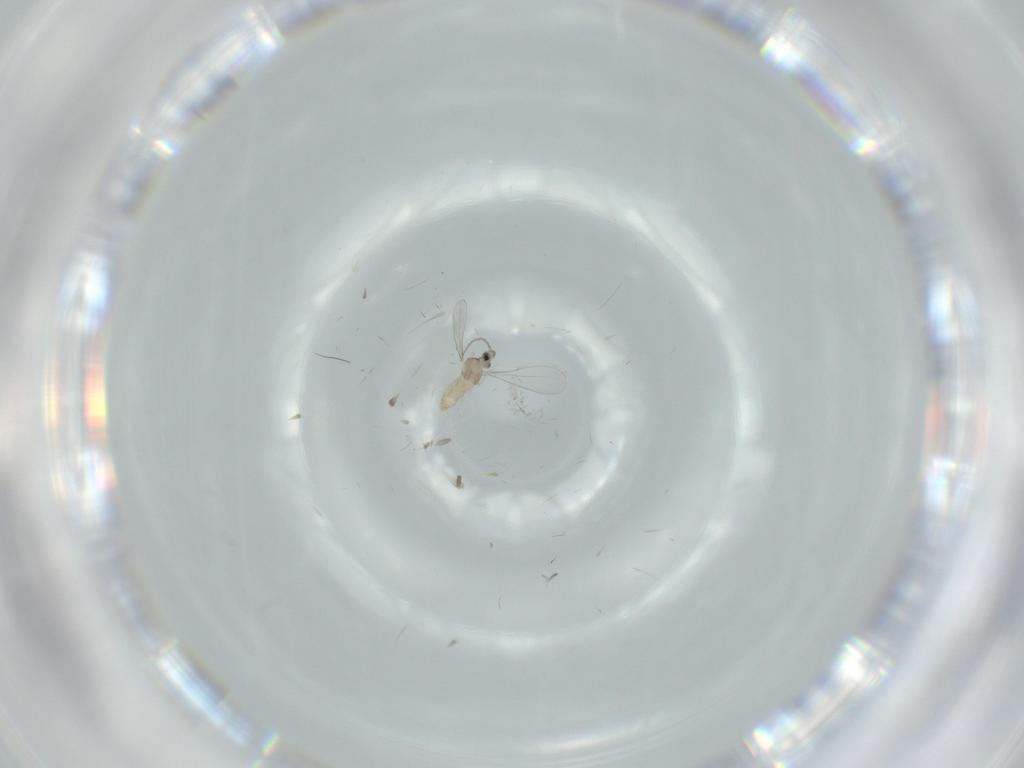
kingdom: Animalia
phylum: Arthropoda
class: Insecta
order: Diptera
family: Cecidomyiidae
